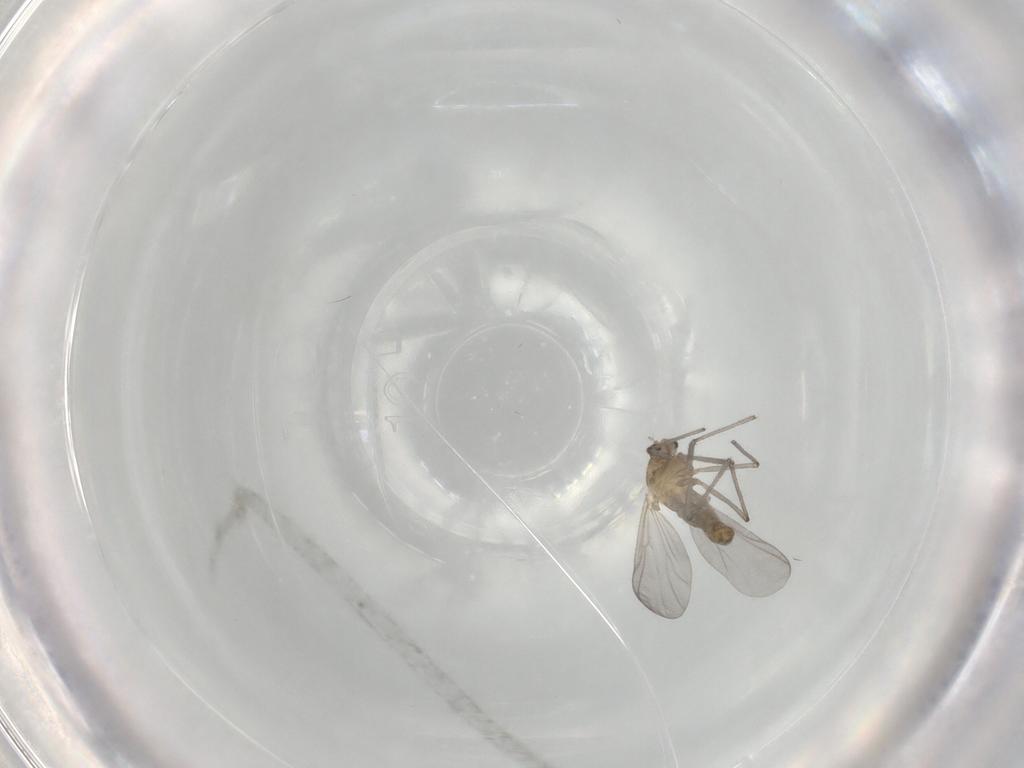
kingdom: Animalia
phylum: Arthropoda
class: Insecta
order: Diptera
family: Chironomidae
